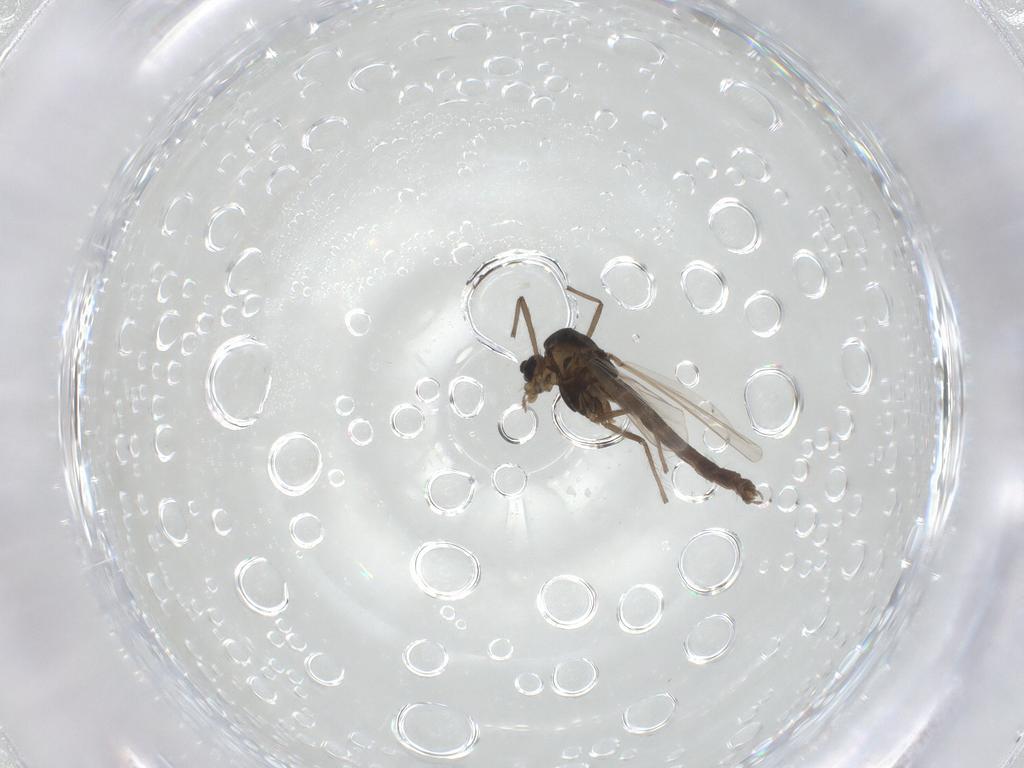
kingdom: Animalia
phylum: Arthropoda
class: Insecta
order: Diptera
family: Chironomidae
